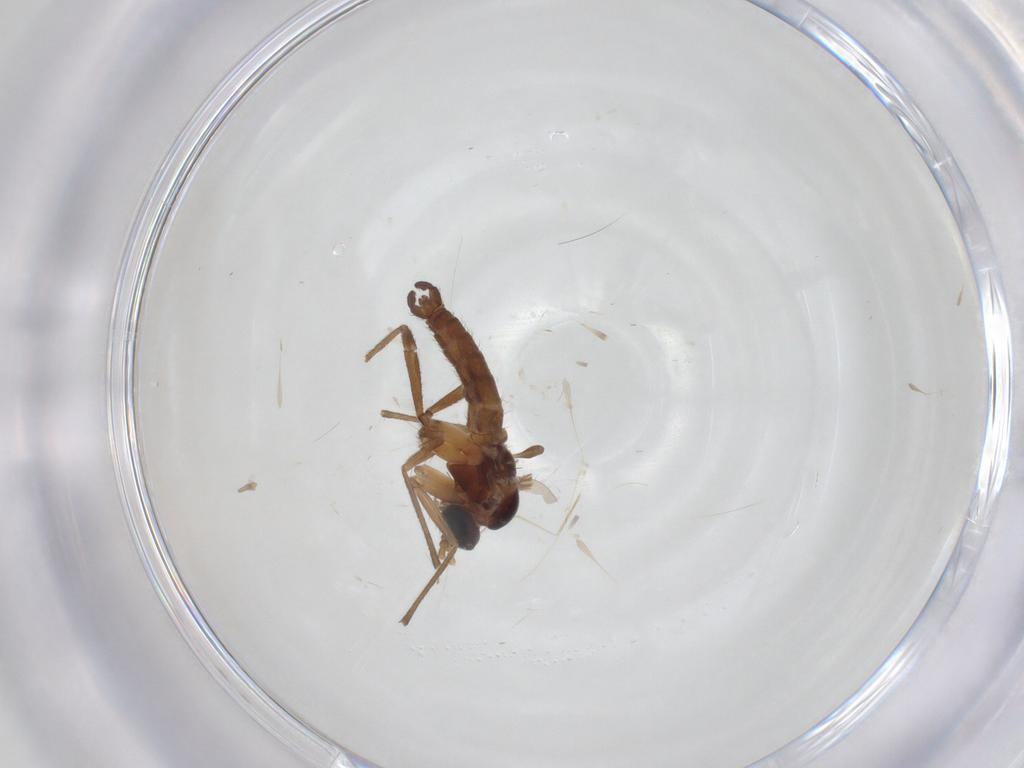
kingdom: Animalia
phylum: Arthropoda
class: Insecta
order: Diptera
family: Sciaridae
